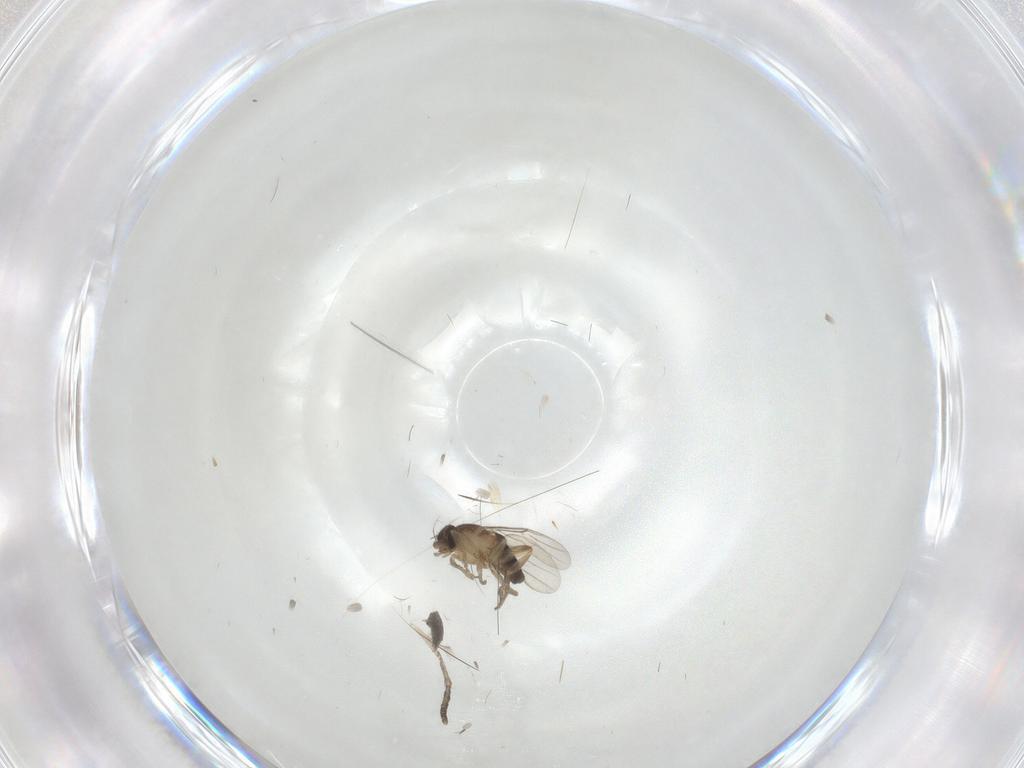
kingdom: Animalia
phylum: Arthropoda
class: Insecta
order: Diptera
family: Phoridae
